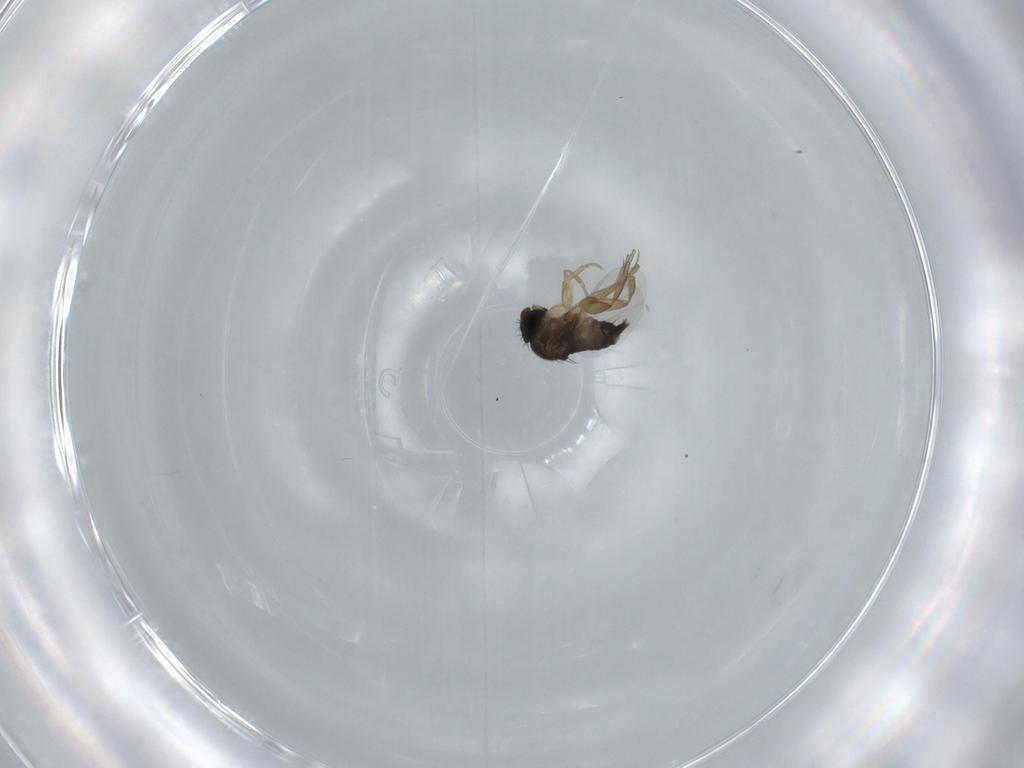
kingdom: Animalia
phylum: Arthropoda
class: Insecta
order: Diptera
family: Phoridae
